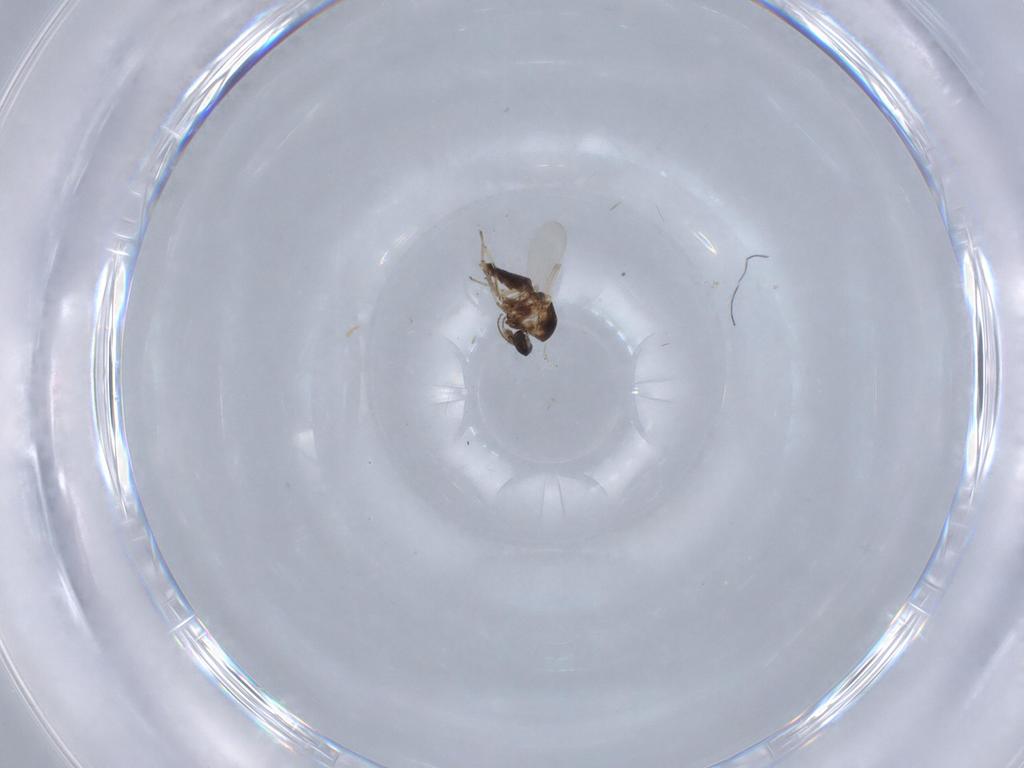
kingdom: Animalia
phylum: Arthropoda
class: Insecta
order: Diptera
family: Ceratopogonidae
